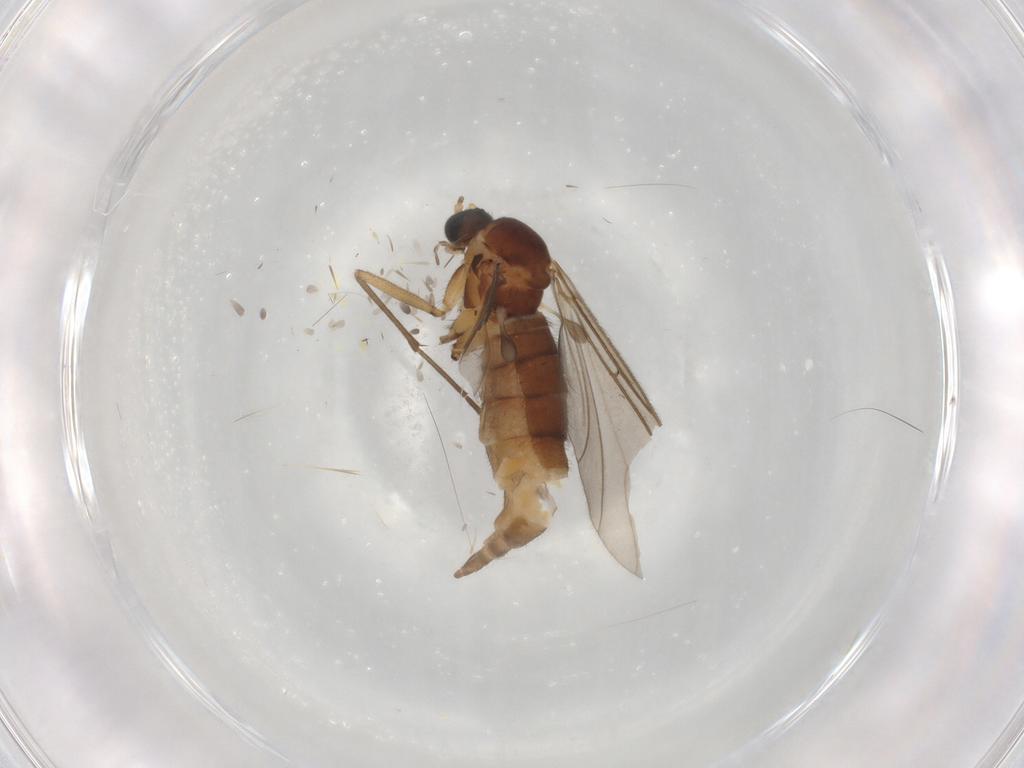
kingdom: Animalia
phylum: Arthropoda
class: Insecta
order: Diptera
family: Sciaridae
